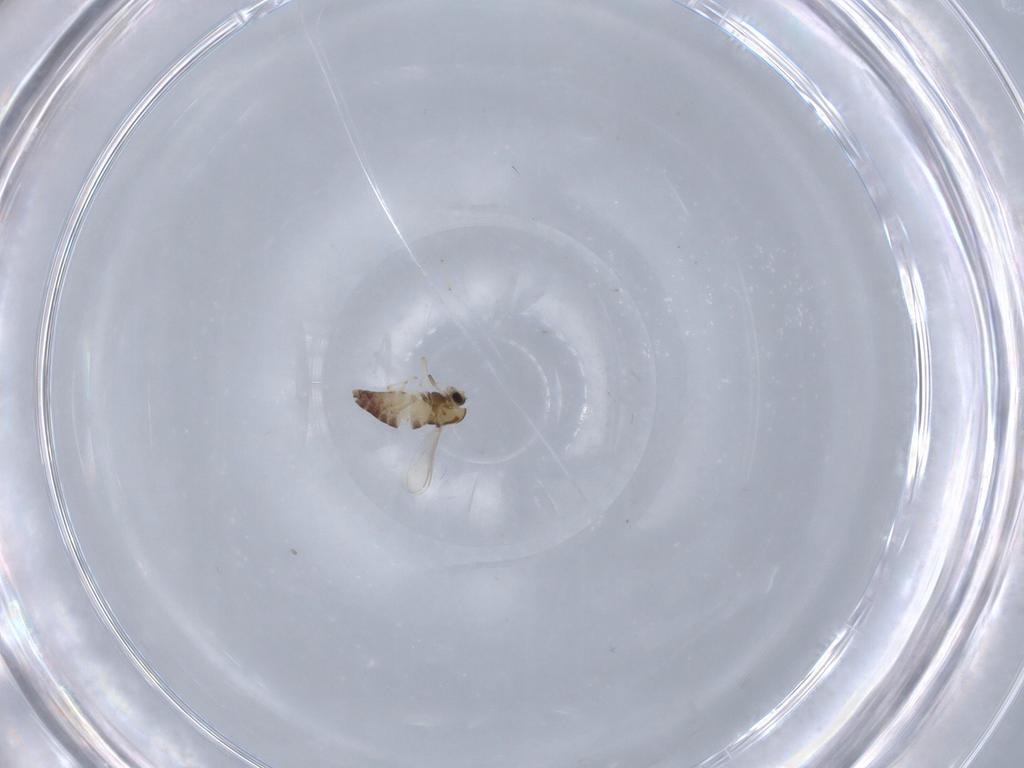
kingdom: Animalia
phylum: Arthropoda
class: Insecta
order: Diptera
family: Chironomidae
